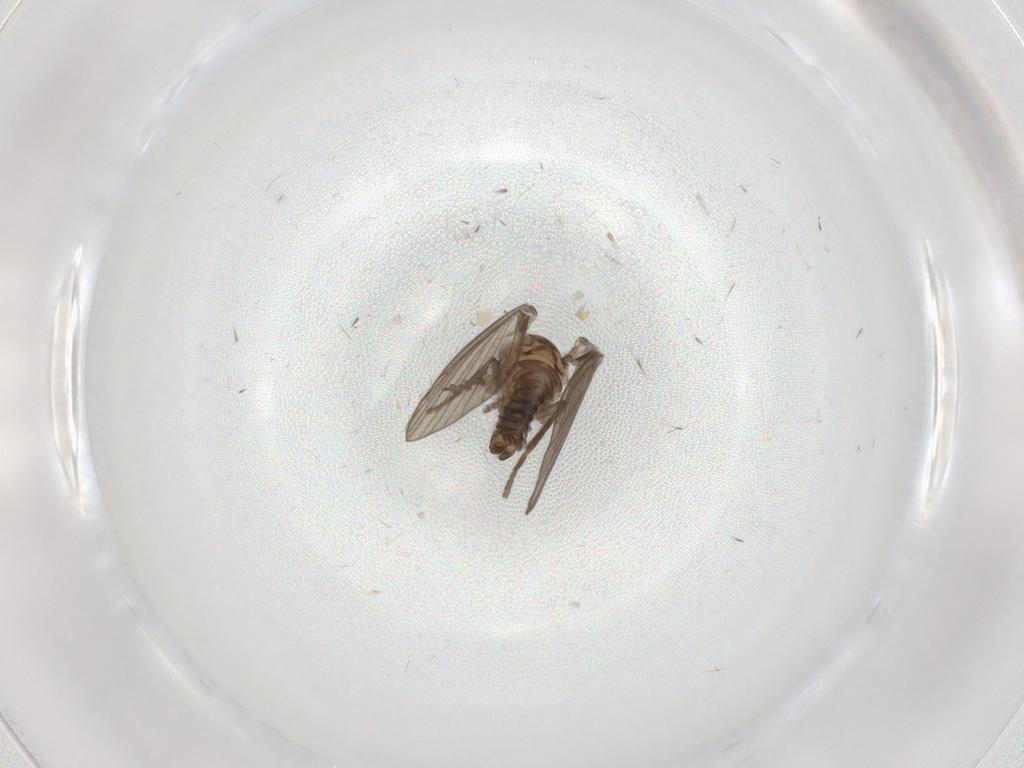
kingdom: Animalia
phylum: Arthropoda
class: Insecta
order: Diptera
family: Psychodidae
